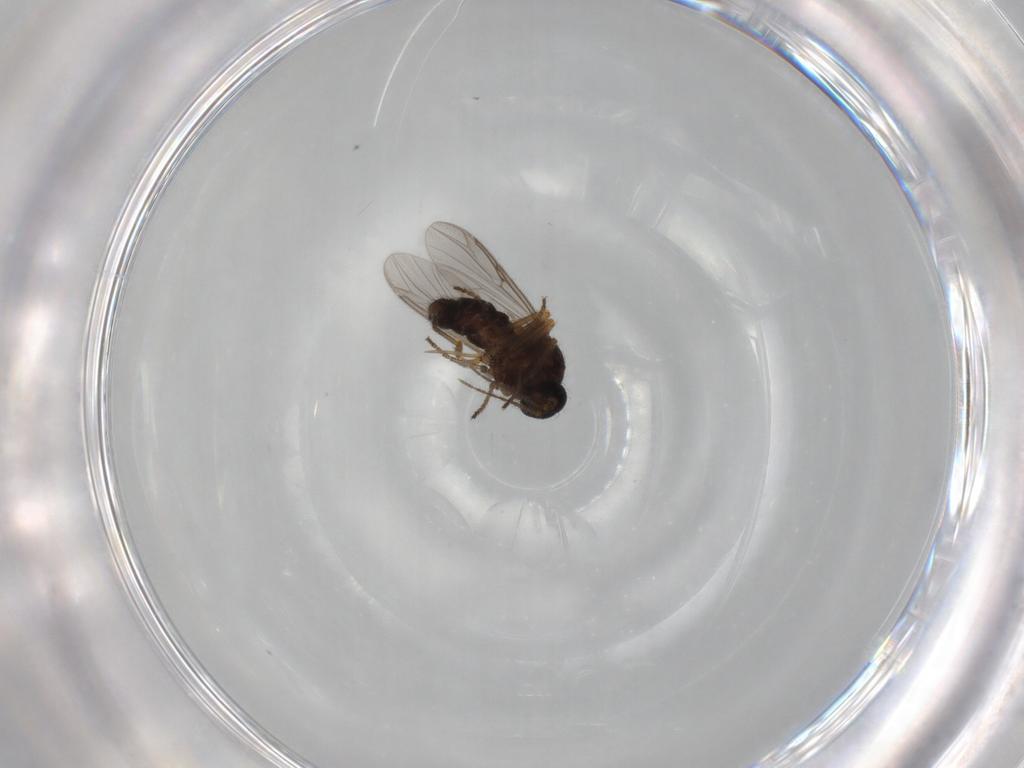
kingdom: Animalia
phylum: Arthropoda
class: Insecta
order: Diptera
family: Ceratopogonidae
